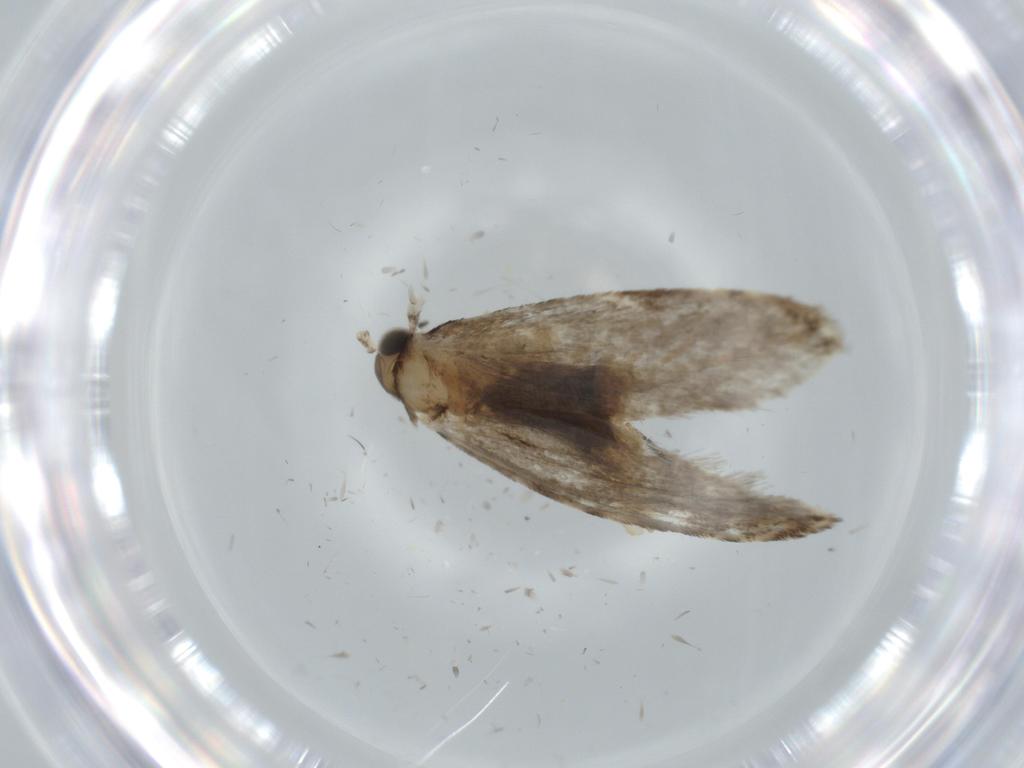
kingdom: Animalia
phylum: Arthropoda
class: Insecta
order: Lepidoptera
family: Tineidae
